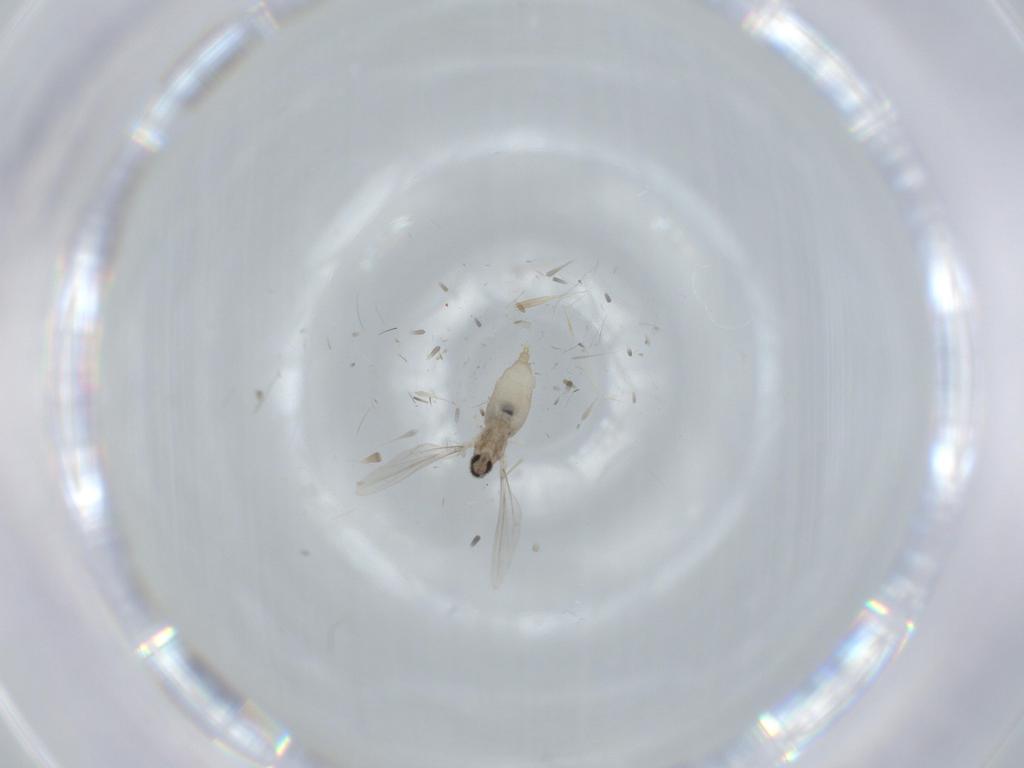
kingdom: Animalia
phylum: Arthropoda
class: Insecta
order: Diptera
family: Cecidomyiidae
